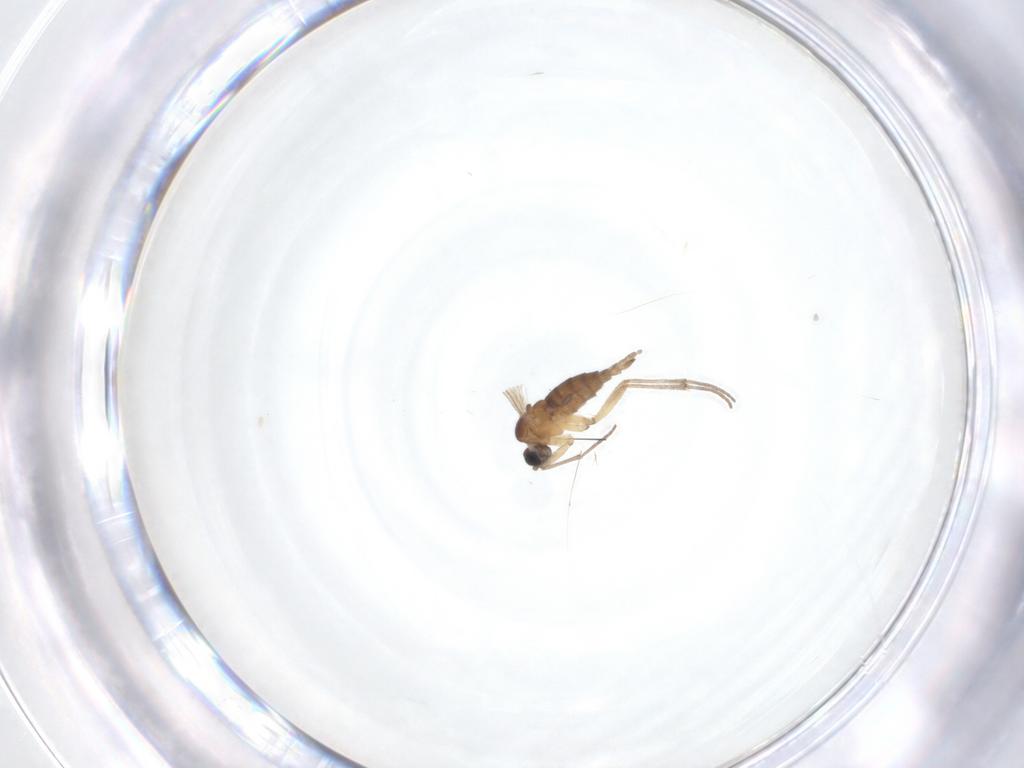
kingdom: Animalia
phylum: Arthropoda
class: Insecta
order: Diptera
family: Sciaridae
